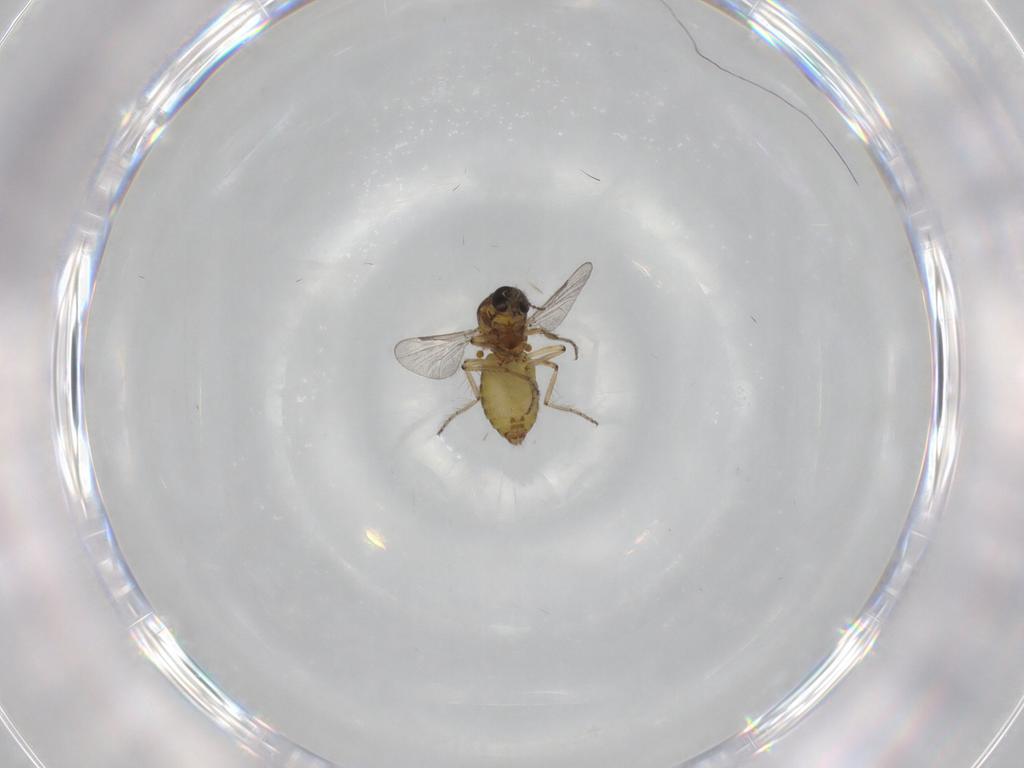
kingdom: Animalia
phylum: Arthropoda
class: Insecta
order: Diptera
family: Ceratopogonidae
